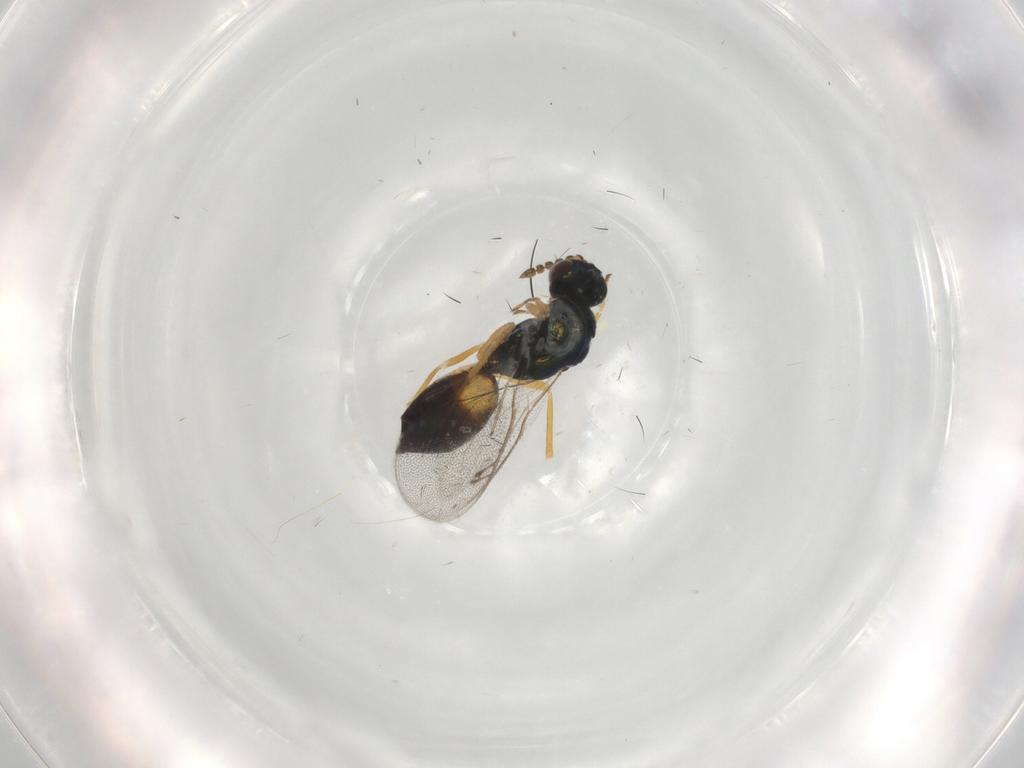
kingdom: Animalia
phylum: Arthropoda
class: Insecta
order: Hymenoptera
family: Eulophidae
